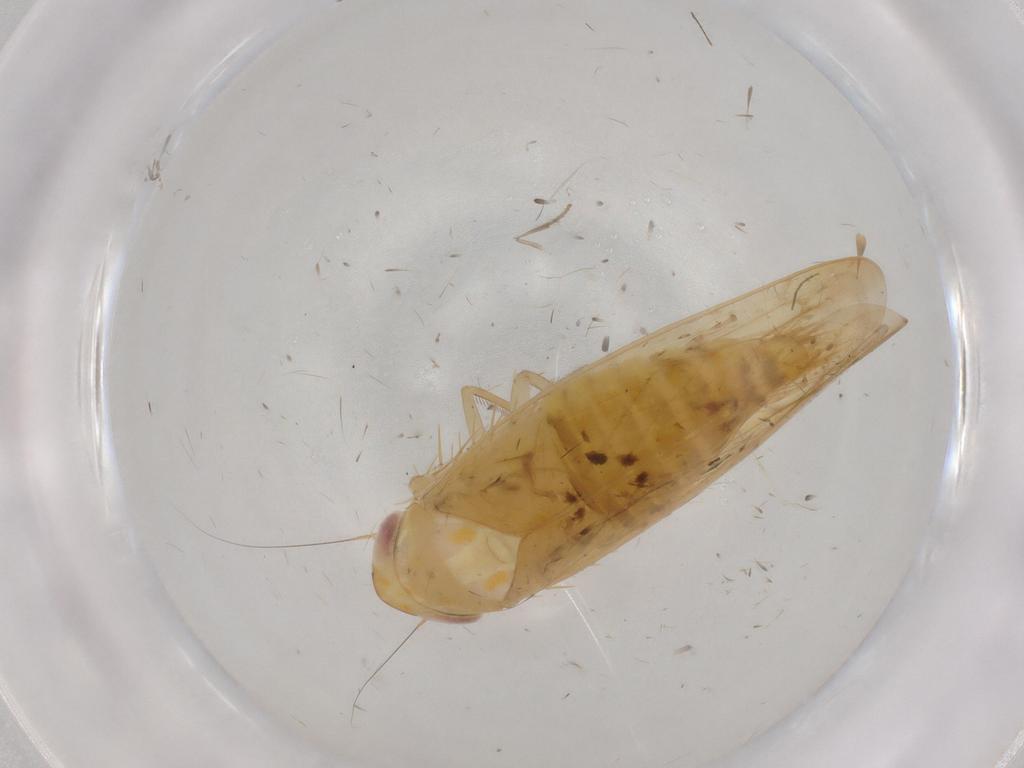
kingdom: Animalia
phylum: Arthropoda
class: Insecta
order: Hemiptera
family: Cicadellidae
